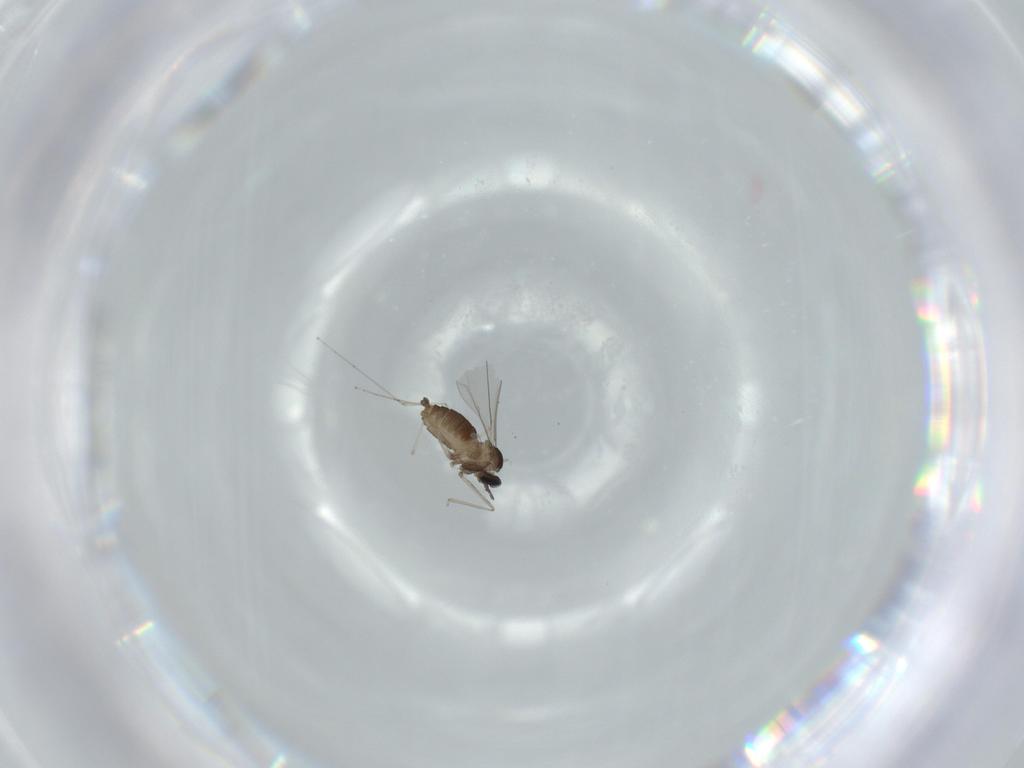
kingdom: Animalia
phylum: Arthropoda
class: Insecta
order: Diptera
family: Cecidomyiidae
